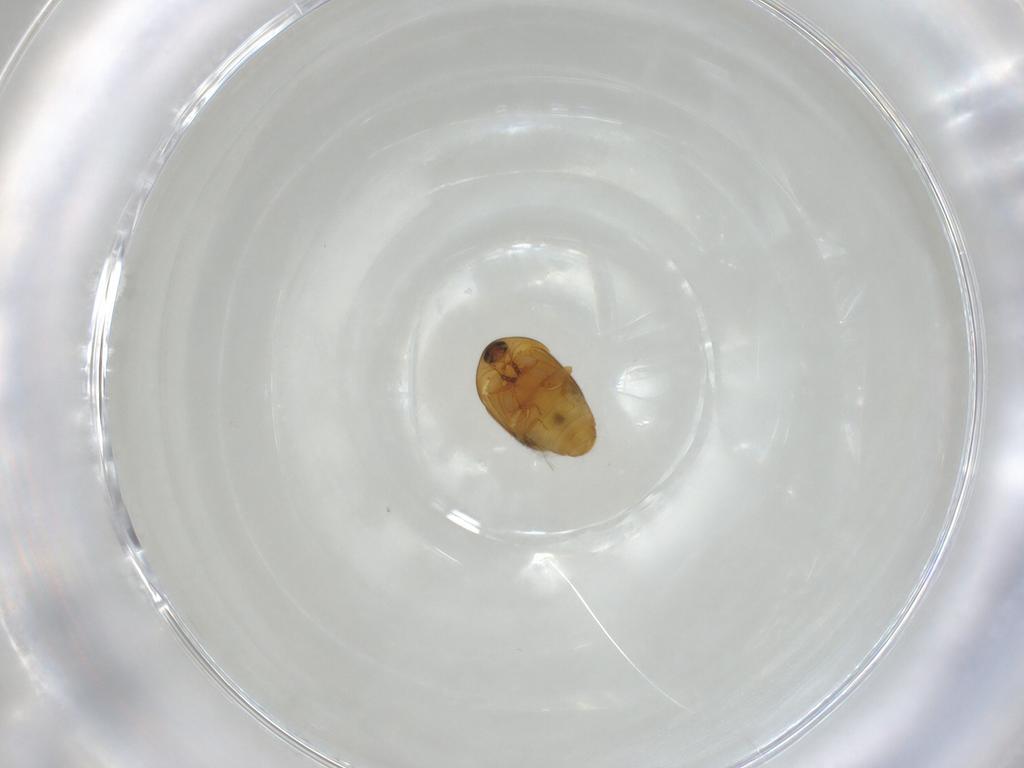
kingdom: Animalia
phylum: Arthropoda
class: Insecta
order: Coleoptera
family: Corylophidae
